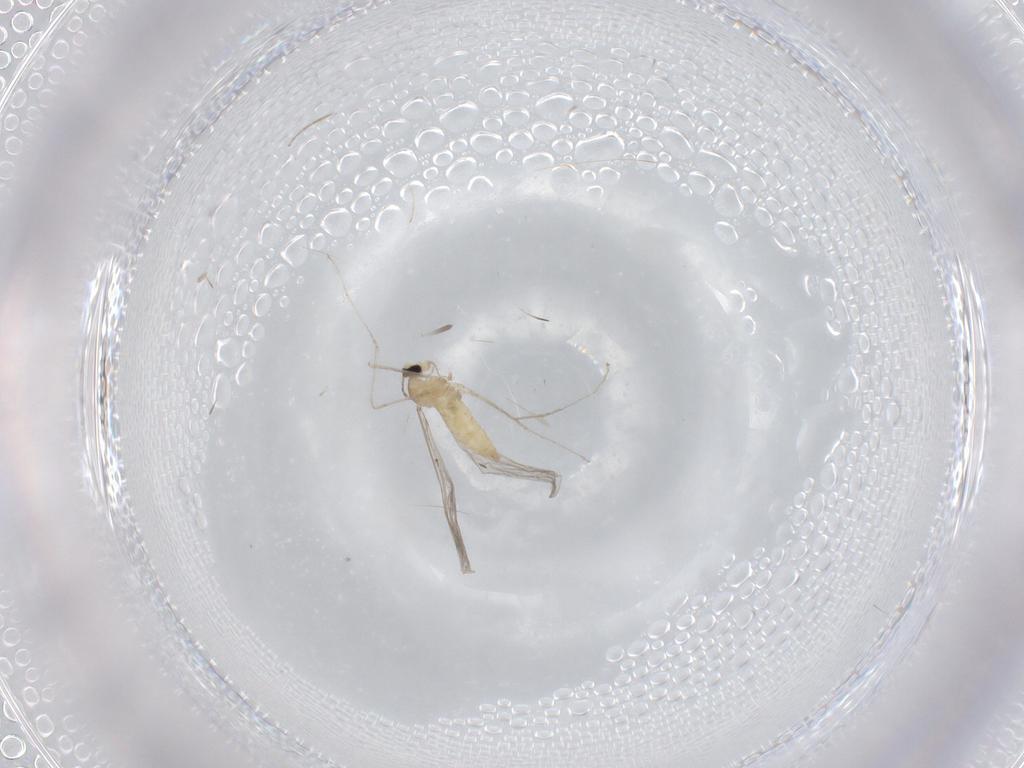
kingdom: Animalia
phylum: Arthropoda
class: Insecta
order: Diptera
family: Cecidomyiidae
